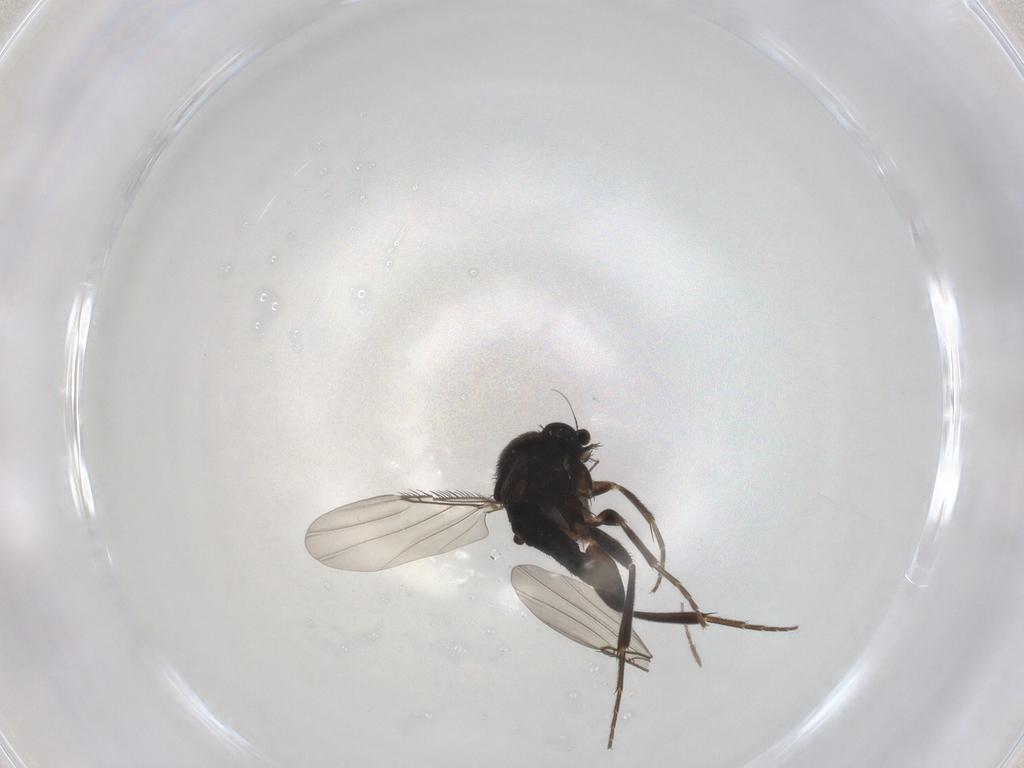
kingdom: Animalia
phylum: Arthropoda
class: Insecta
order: Diptera
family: Phoridae
